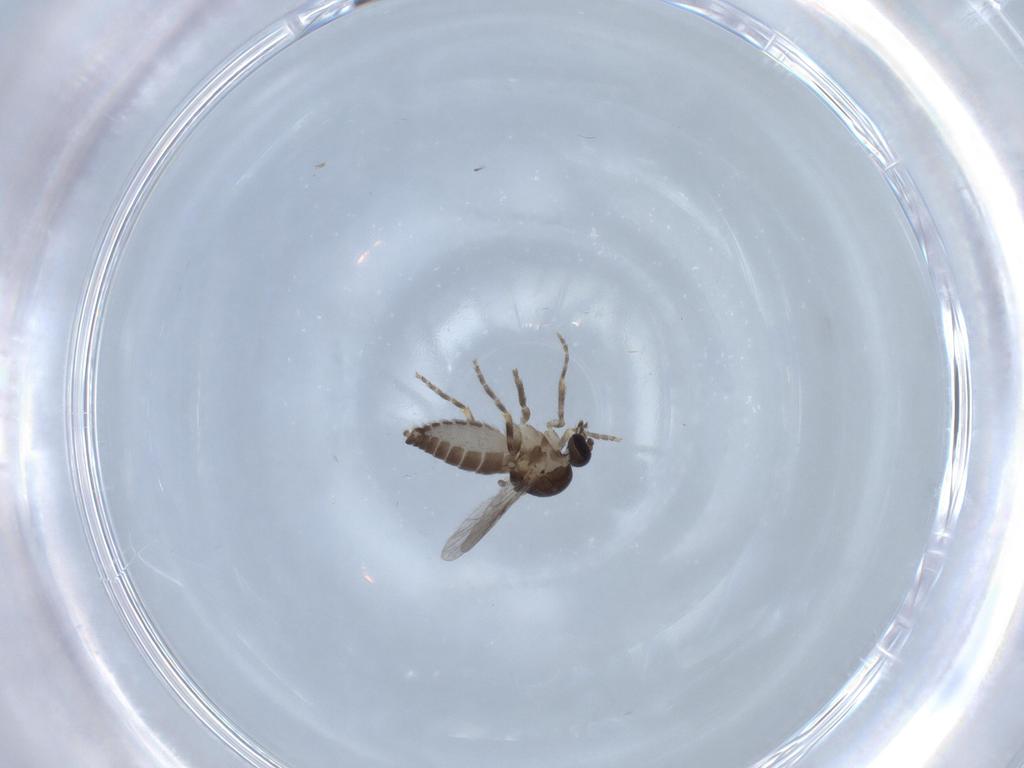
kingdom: Animalia
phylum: Arthropoda
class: Insecta
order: Diptera
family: Ceratopogonidae
